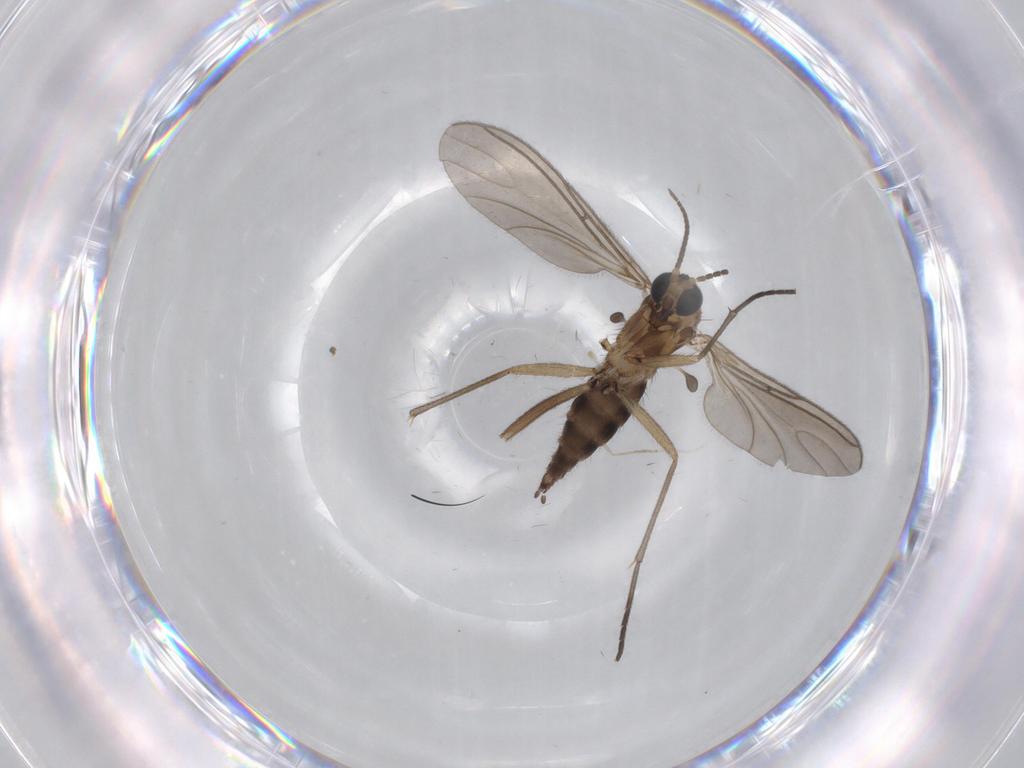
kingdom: Animalia
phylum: Arthropoda
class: Insecta
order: Diptera
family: Sciaridae
